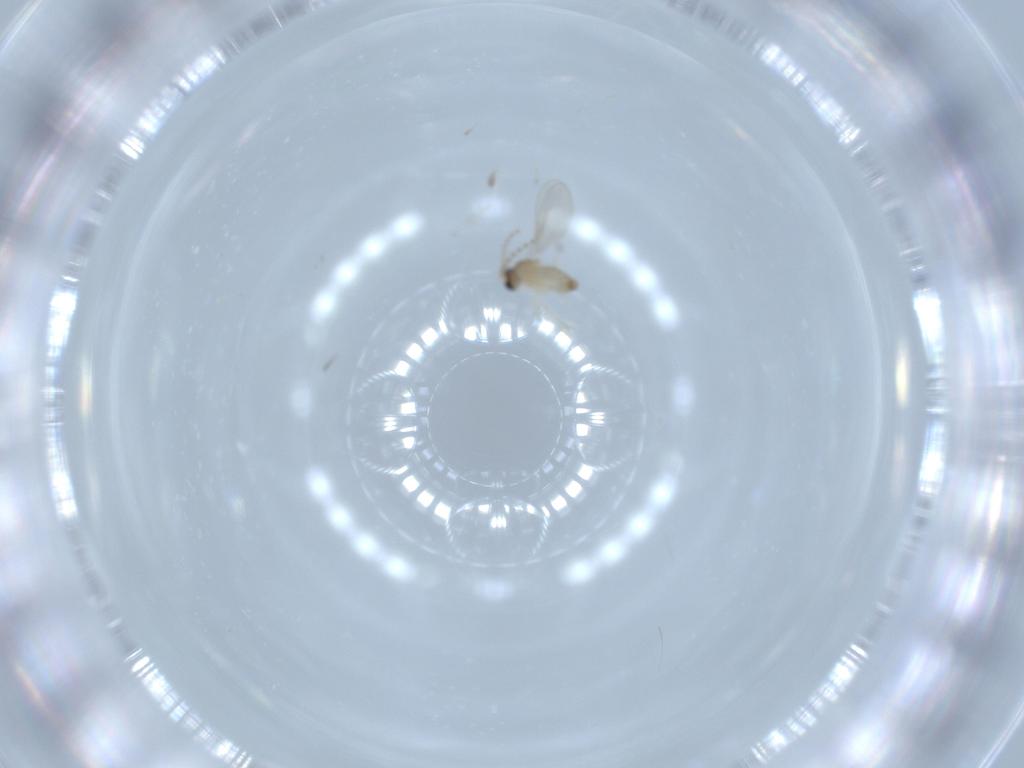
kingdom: Animalia
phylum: Arthropoda
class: Insecta
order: Diptera
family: Cecidomyiidae
